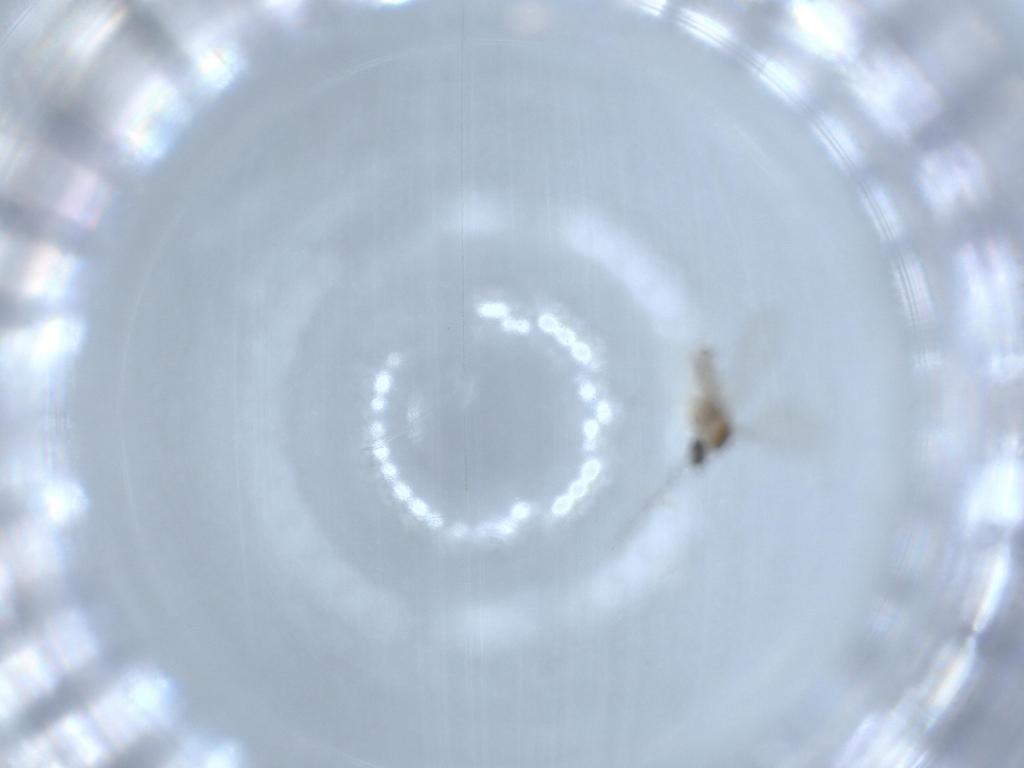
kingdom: Animalia
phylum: Arthropoda
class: Insecta
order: Diptera
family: Cecidomyiidae
